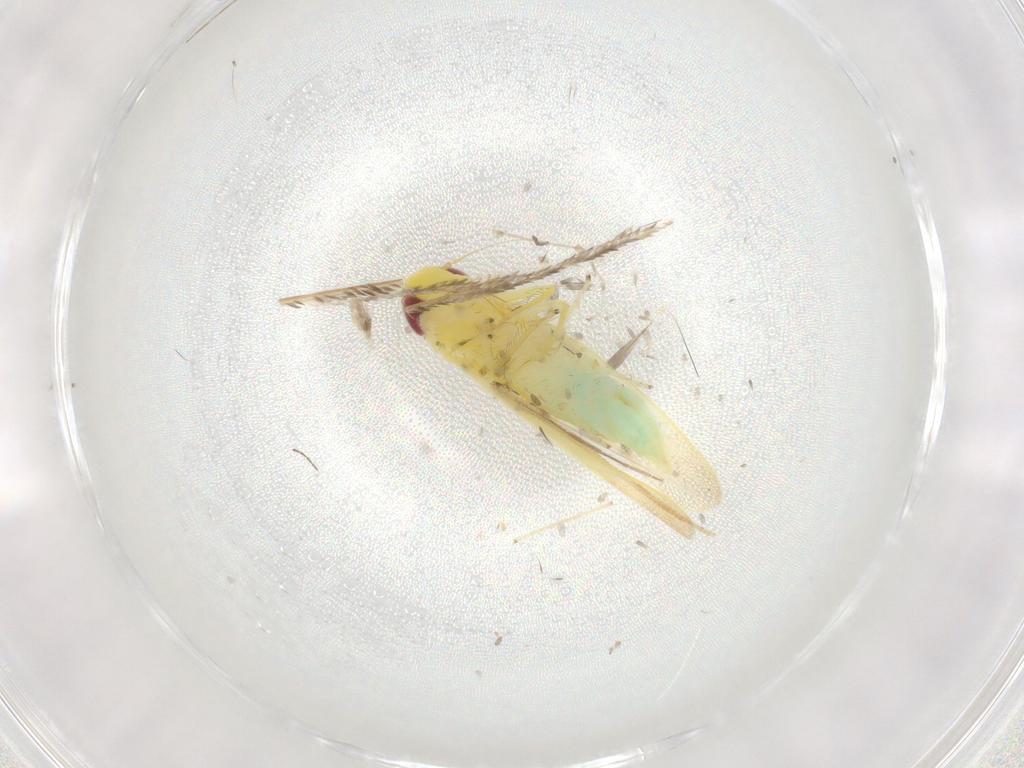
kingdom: Animalia
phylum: Arthropoda
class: Insecta
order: Hemiptera
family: Cicadellidae
